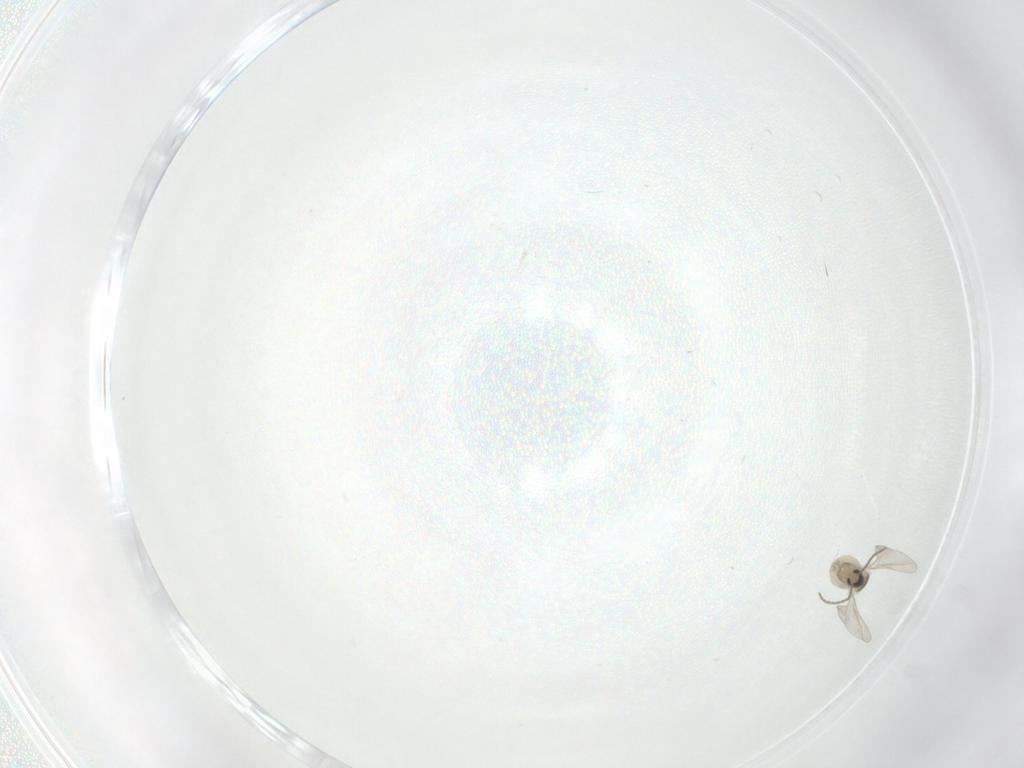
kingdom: Animalia
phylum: Arthropoda
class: Insecta
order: Diptera
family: Cecidomyiidae
